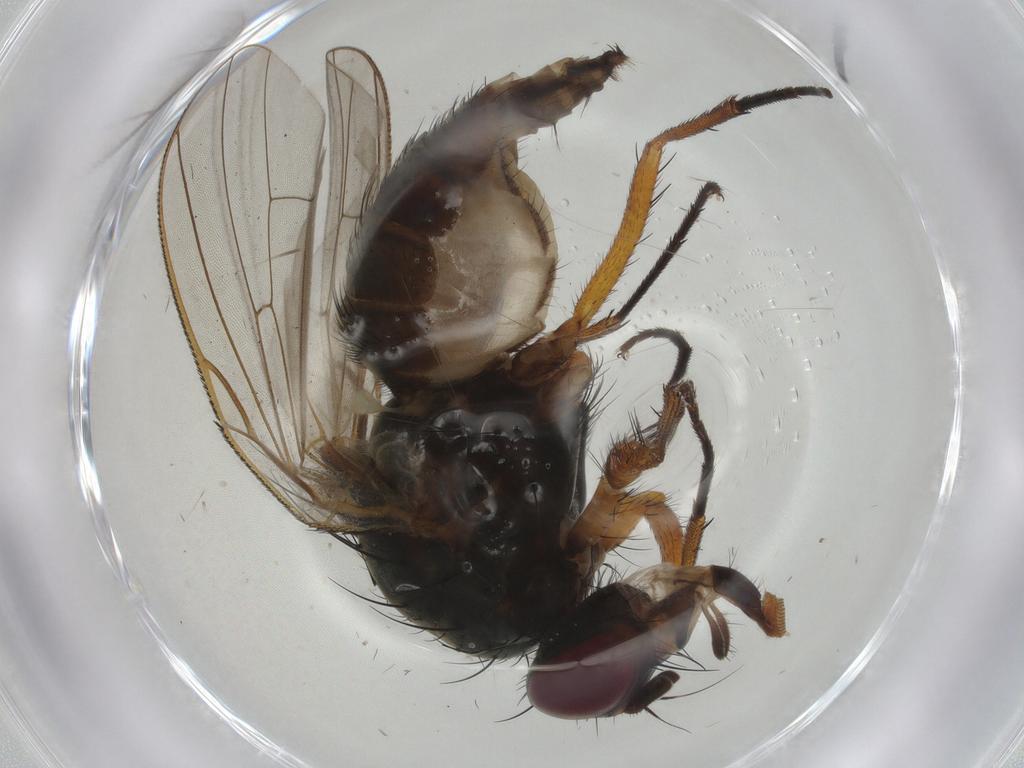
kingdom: Animalia
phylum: Arthropoda
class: Insecta
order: Diptera
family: Anthomyiidae
